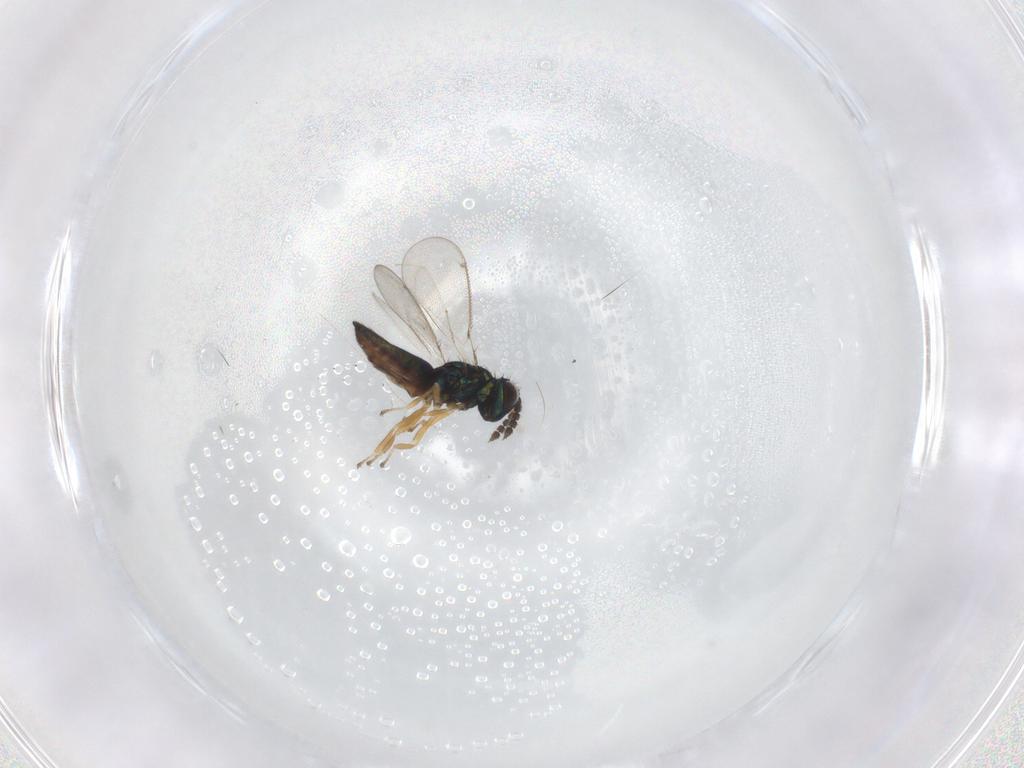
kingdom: Animalia
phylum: Arthropoda
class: Insecta
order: Hymenoptera
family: Eulophidae
